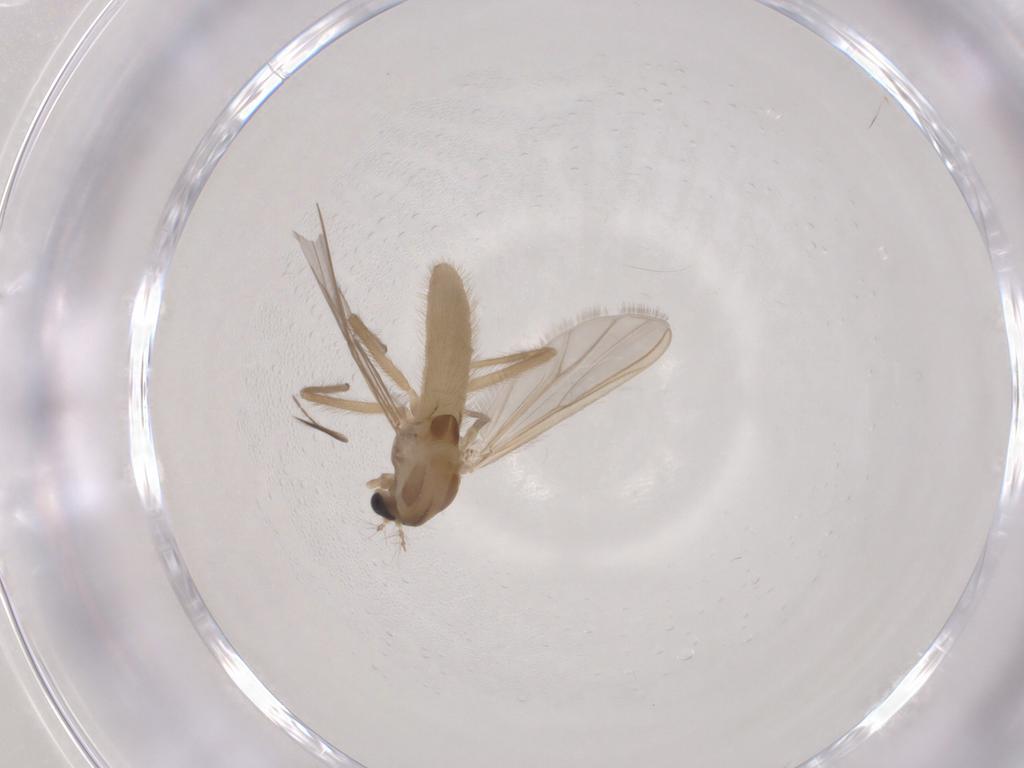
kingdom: Animalia
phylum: Arthropoda
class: Insecta
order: Diptera
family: Chironomidae
